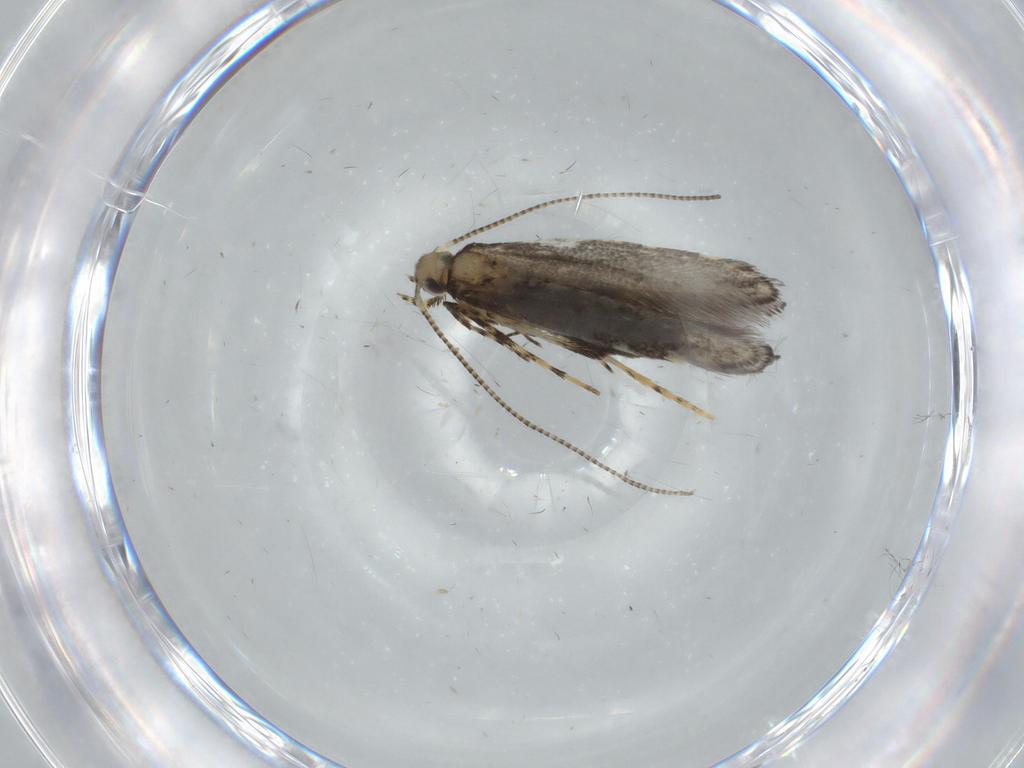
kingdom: Animalia
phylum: Arthropoda
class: Insecta
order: Lepidoptera
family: Gracillariidae
